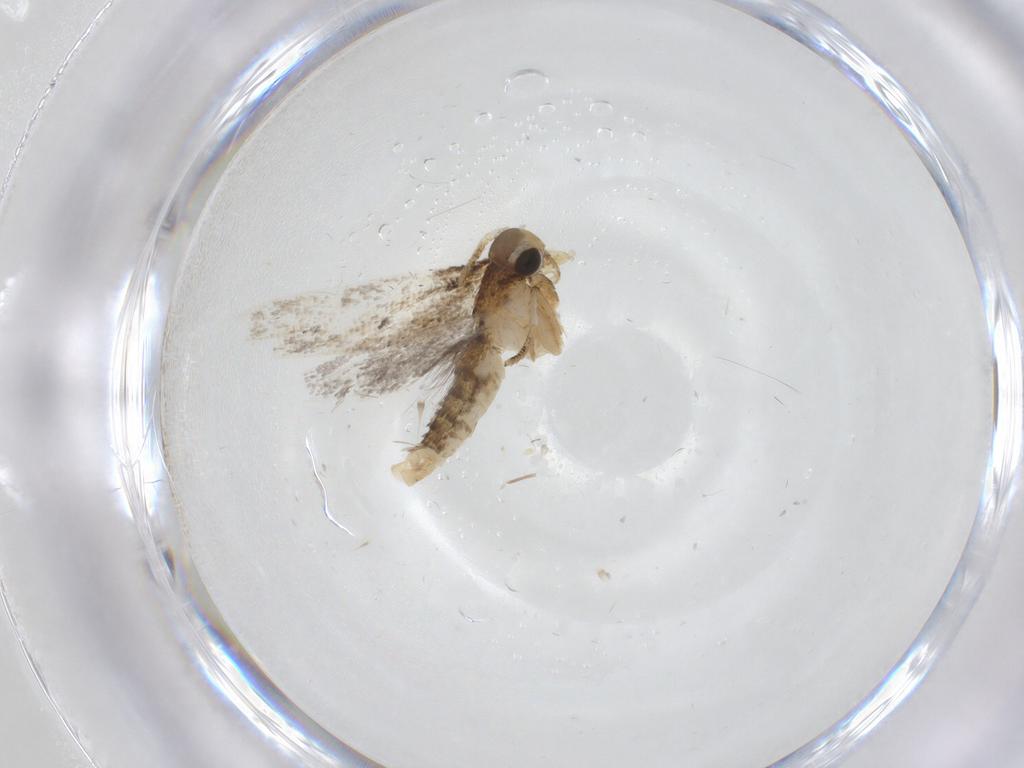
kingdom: Animalia
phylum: Arthropoda
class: Insecta
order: Lepidoptera
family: Oecophoridae
